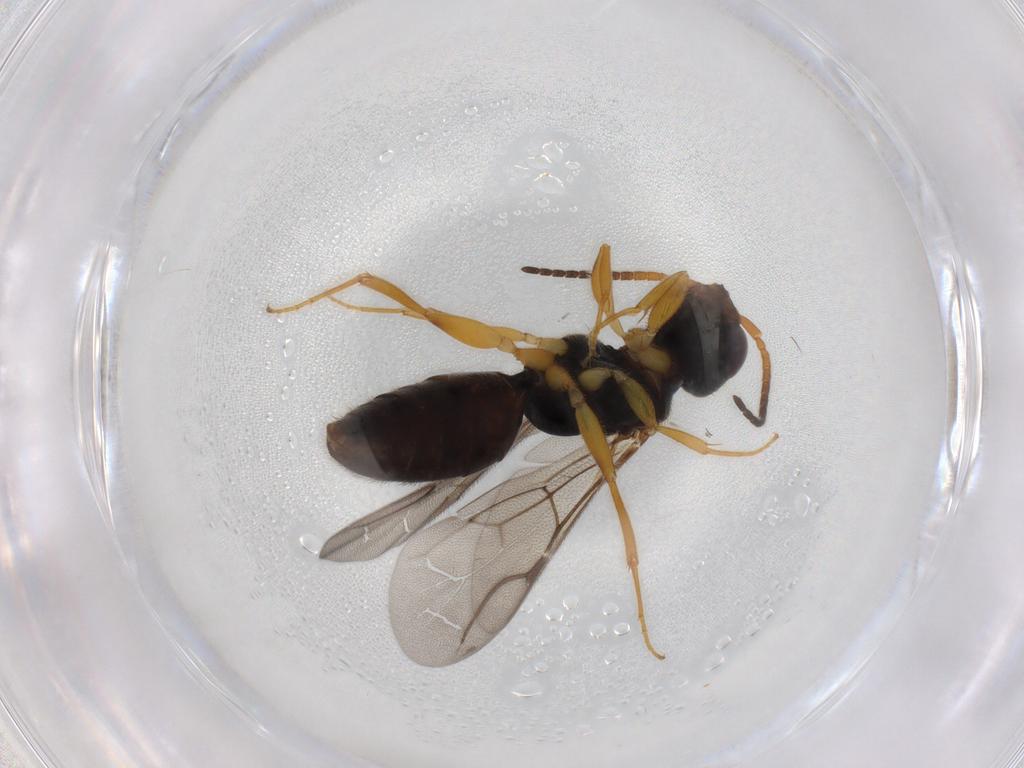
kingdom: Animalia
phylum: Arthropoda
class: Insecta
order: Hymenoptera
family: Bethylidae
